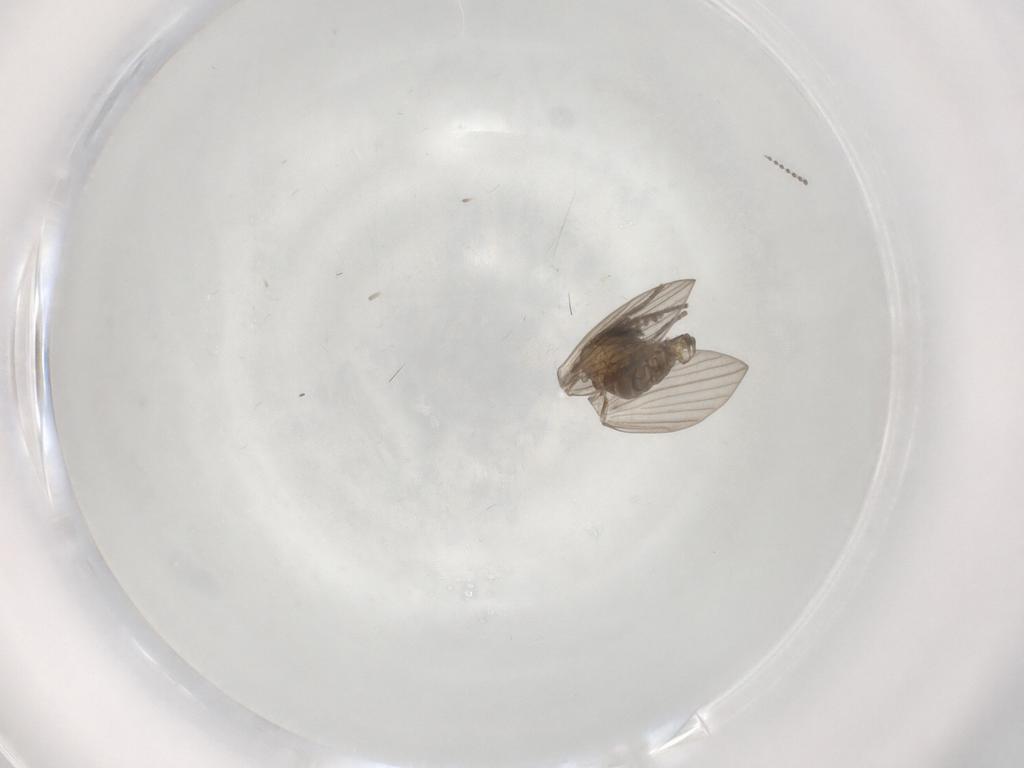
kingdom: Animalia
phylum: Arthropoda
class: Insecta
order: Diptera
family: Psychodidae
